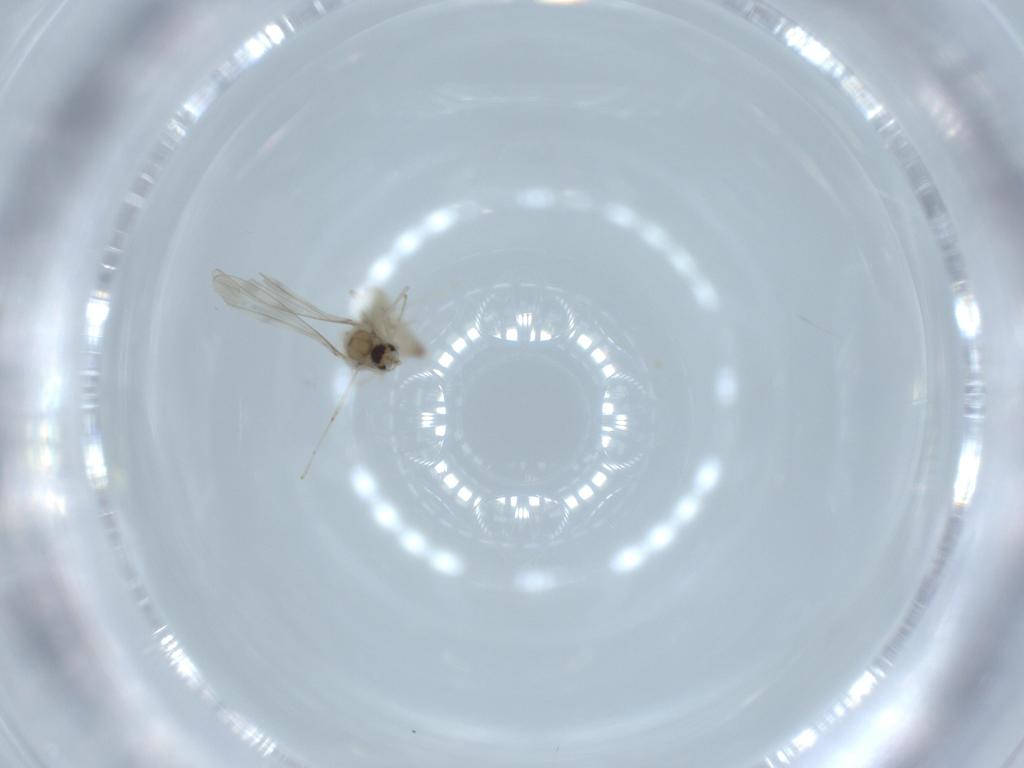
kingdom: Animalia
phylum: Arthropoda
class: Insecta
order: Diptera
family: Cecidomyiidae
